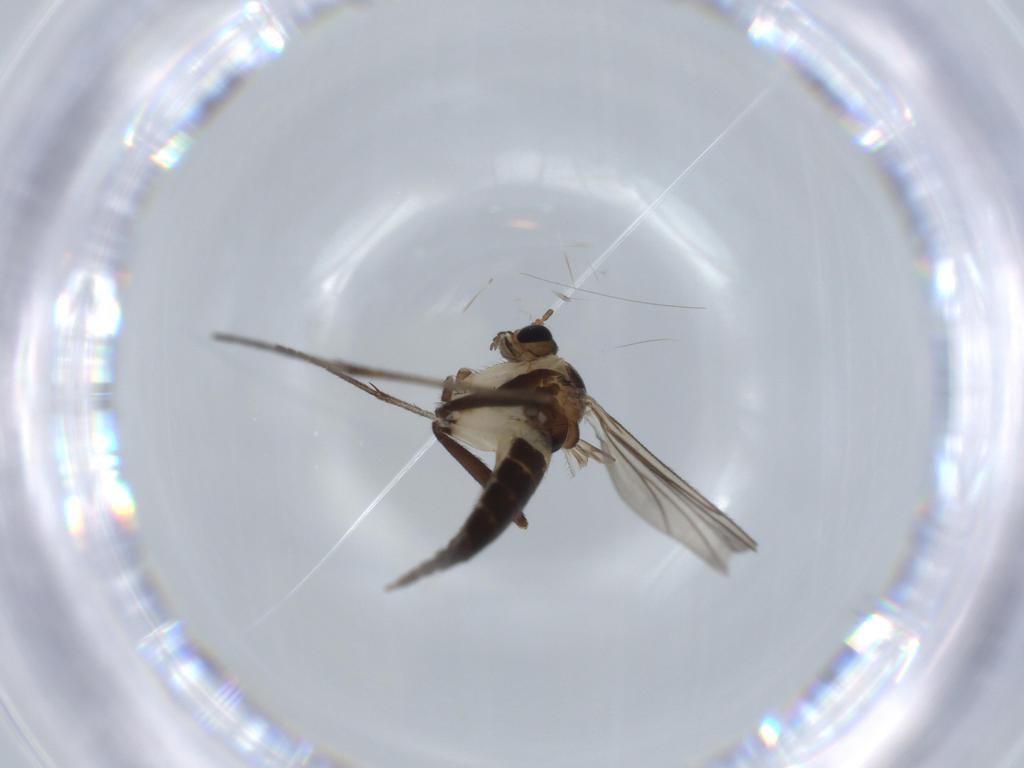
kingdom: Animalia
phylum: Arthropoda
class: Insecta
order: Diptera
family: Sciaridae
